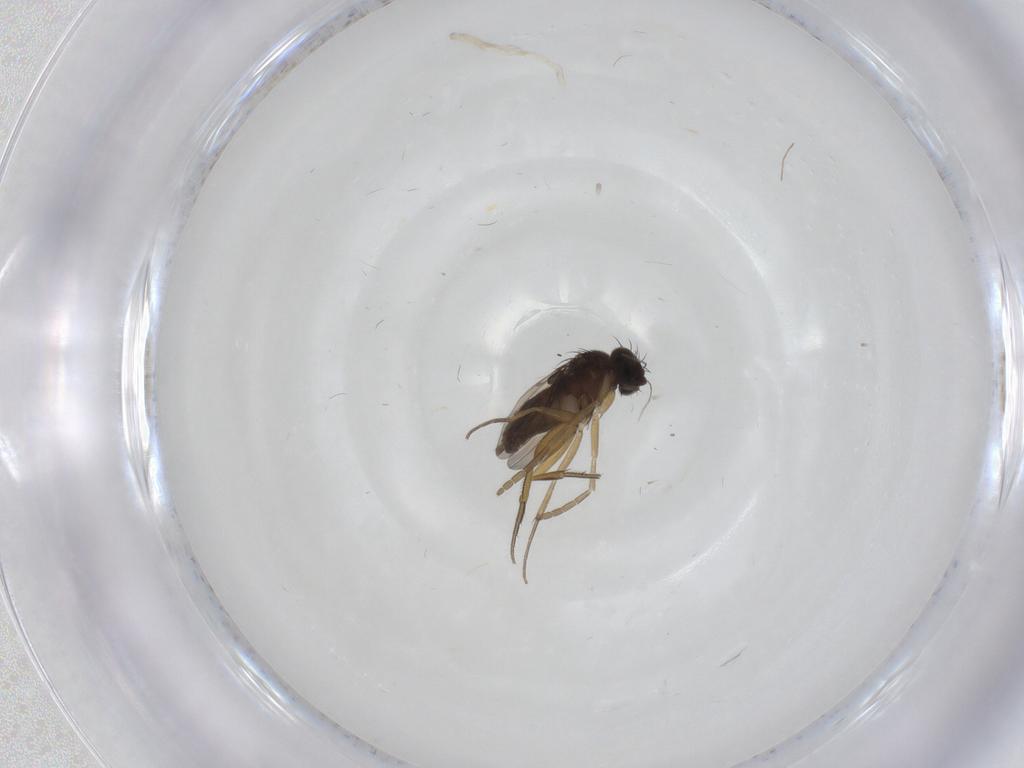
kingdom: Animalia
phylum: Arthropoda
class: Insecta
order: Diptera
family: Chironomidae
